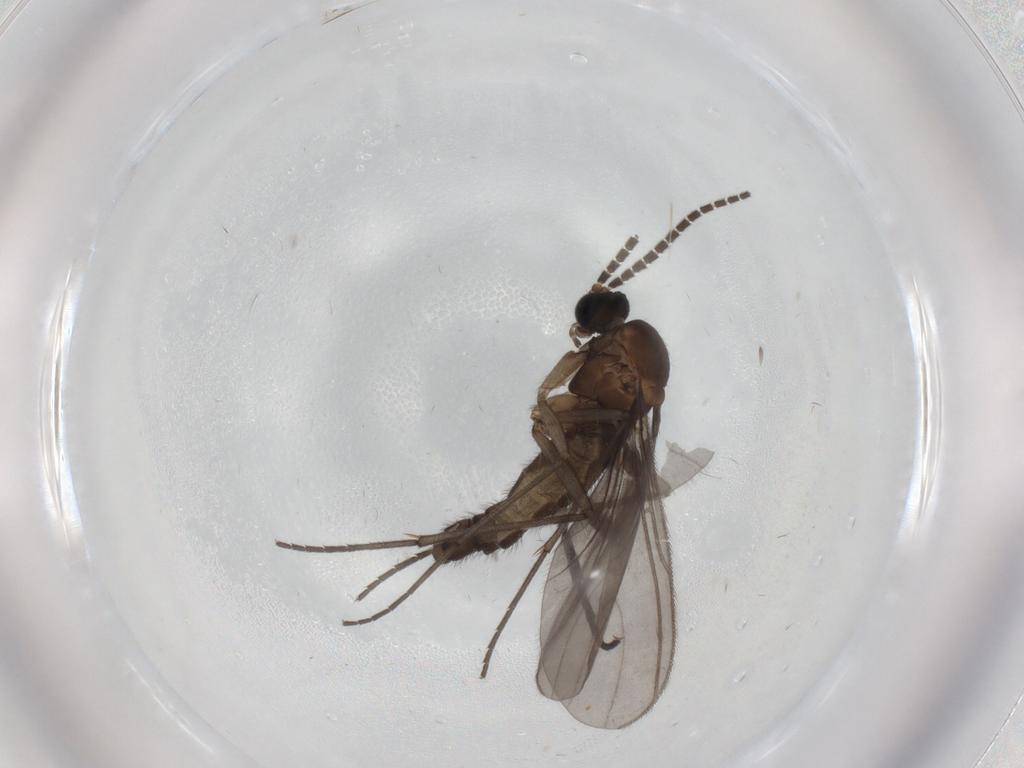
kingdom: Animalia
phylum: Arthropoda
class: Insecta
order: Diptera
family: Sciaridae
